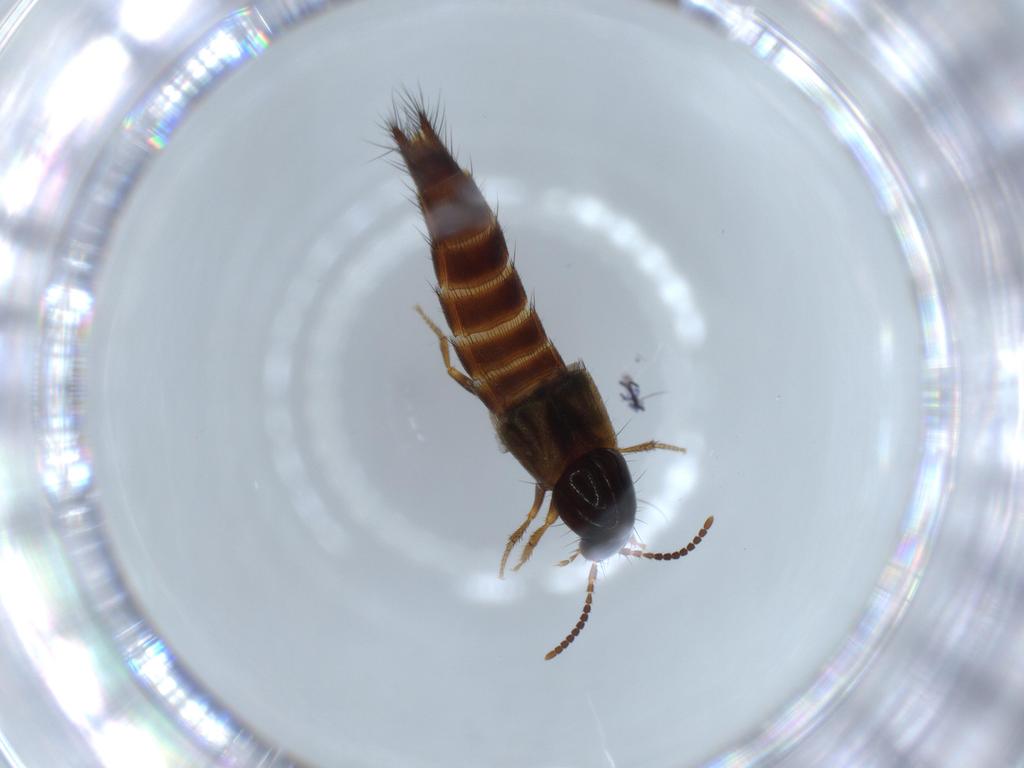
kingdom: Animalia
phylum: Arthropoda
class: Insecta
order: Coleoptera
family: Staphylinidae
